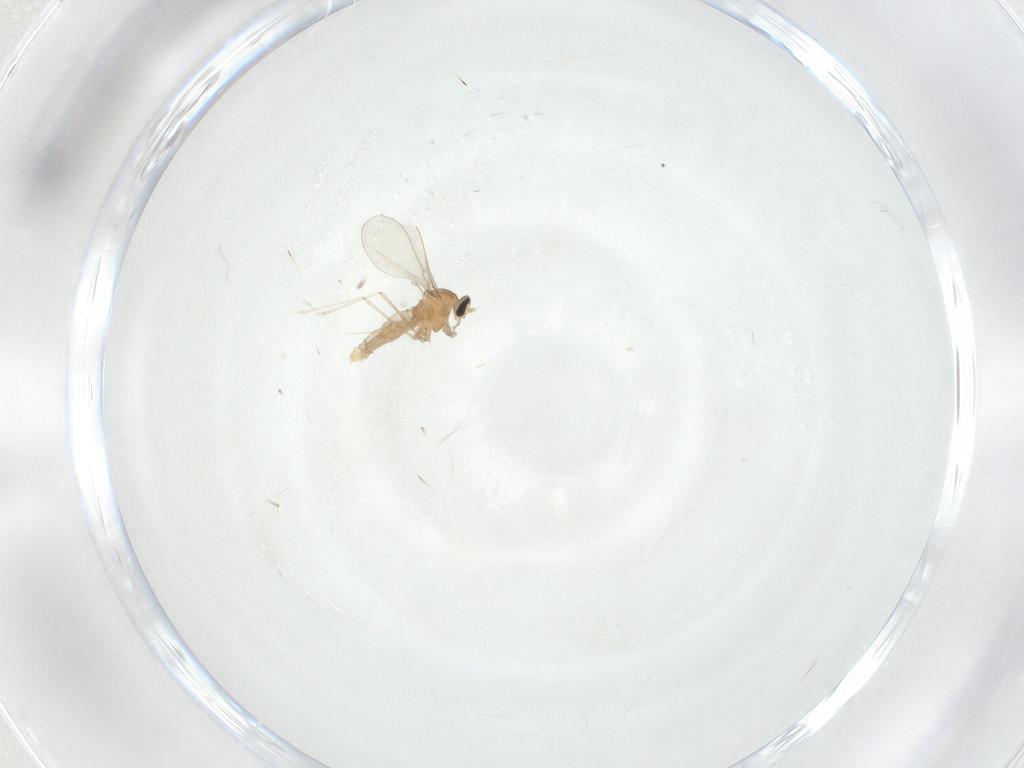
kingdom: Animalia
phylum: Arthropoda
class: Insecta
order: Diptera
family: Cecidomyiidae
